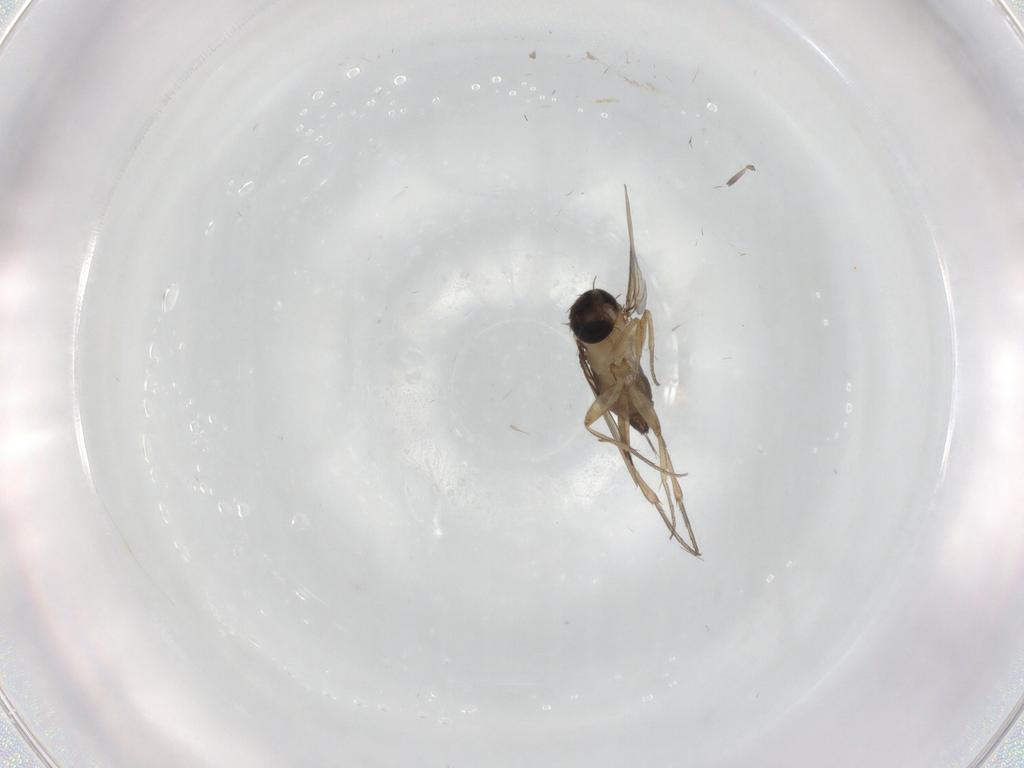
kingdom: Animalia
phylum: Arthropoda
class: Insecta
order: Diptera
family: Phoridae
